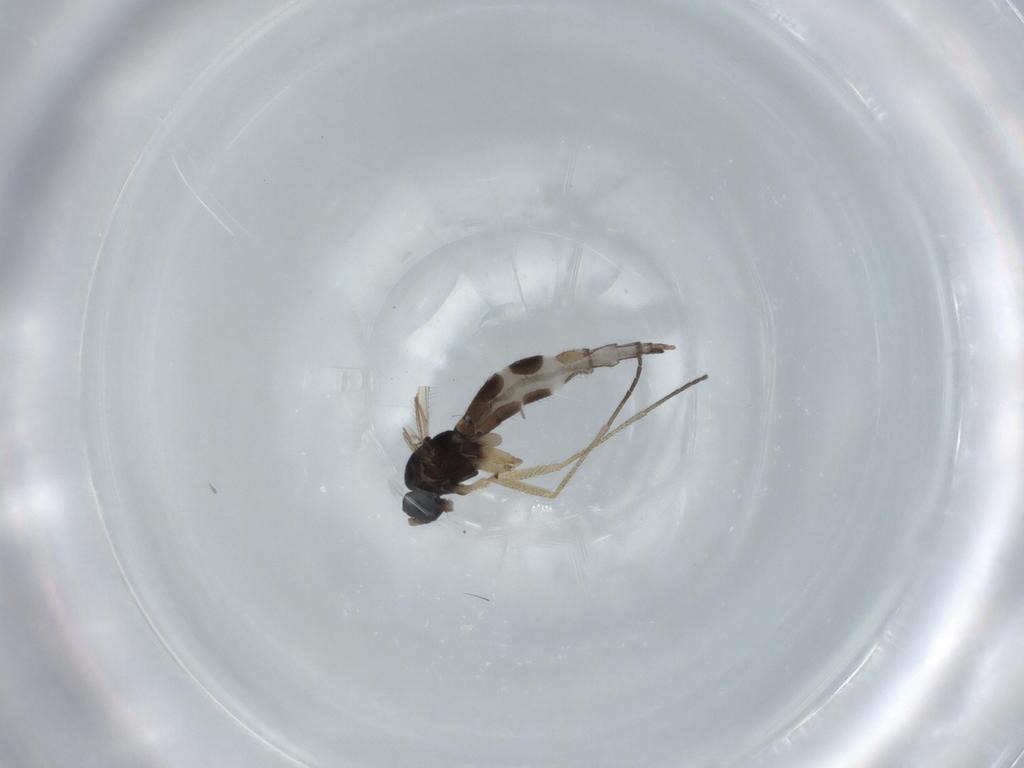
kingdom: Animalia
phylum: Arthropoda
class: Insecta
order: Diptera
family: Sciaridae
